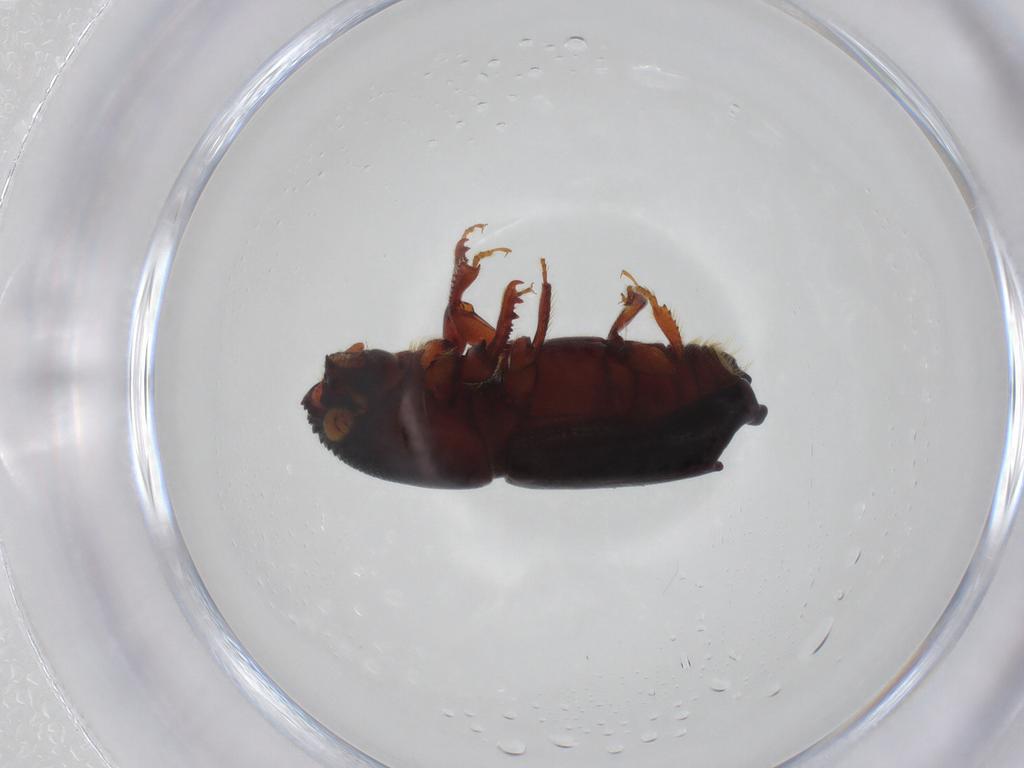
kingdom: Animalia
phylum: Arthropoda
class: Insecta
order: Coleoptera
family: Curculionidae
